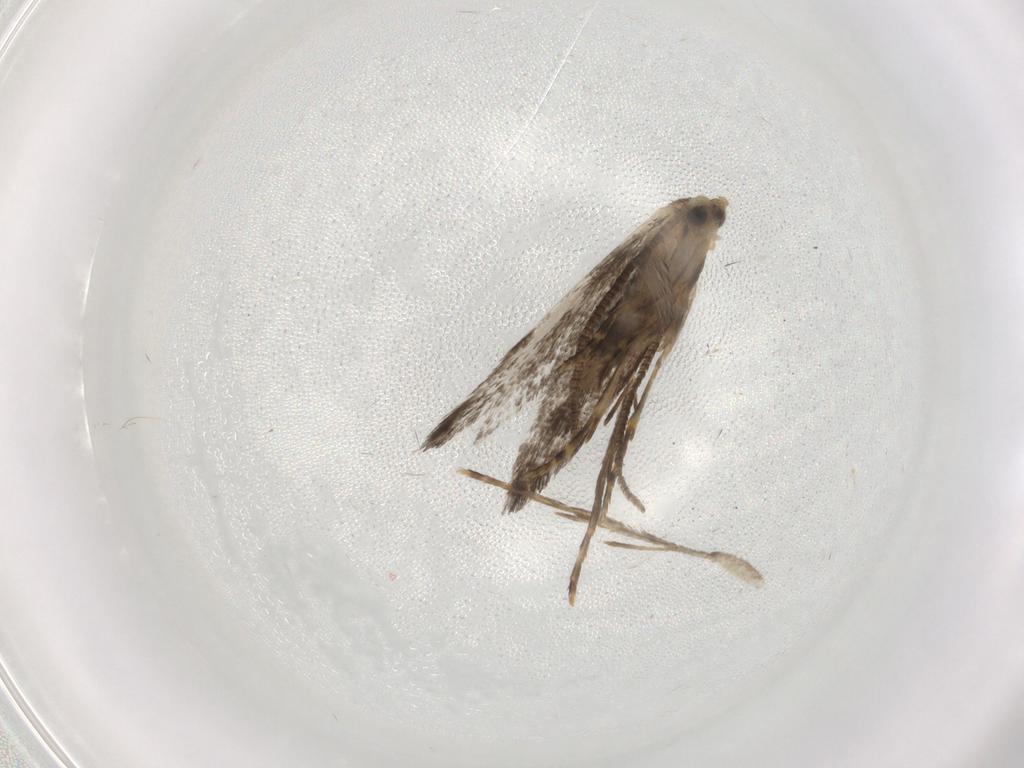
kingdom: Animalia
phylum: Arthropoda
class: Insecta
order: Lepidoptera
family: Tineidae
